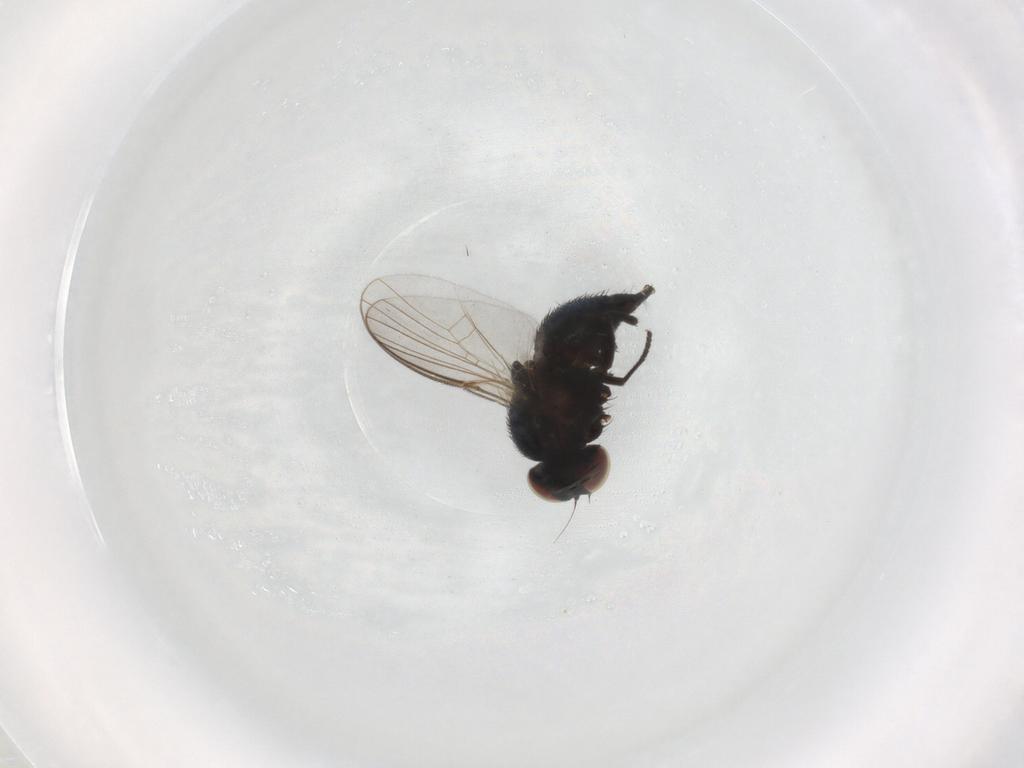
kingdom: Animalia
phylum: Arthropoda
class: Insecta
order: Diptera
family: Agromyzidae
